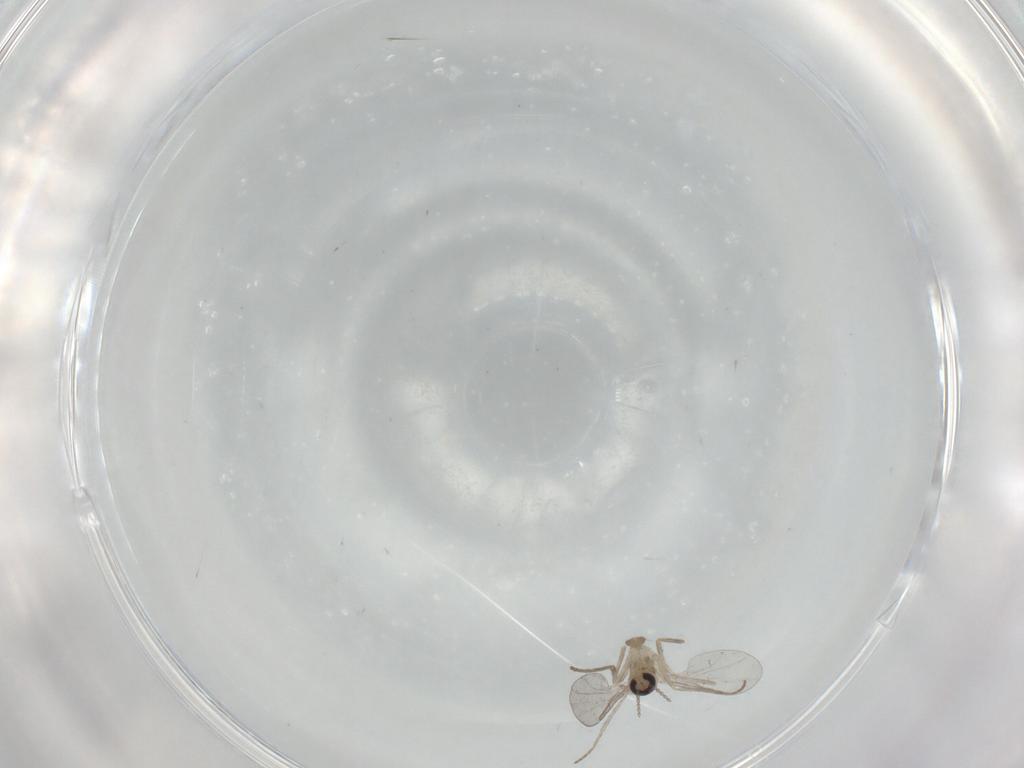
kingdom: Animalia
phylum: Arthropoda
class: Insecta
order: Diptera
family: Cecidomyiidae
